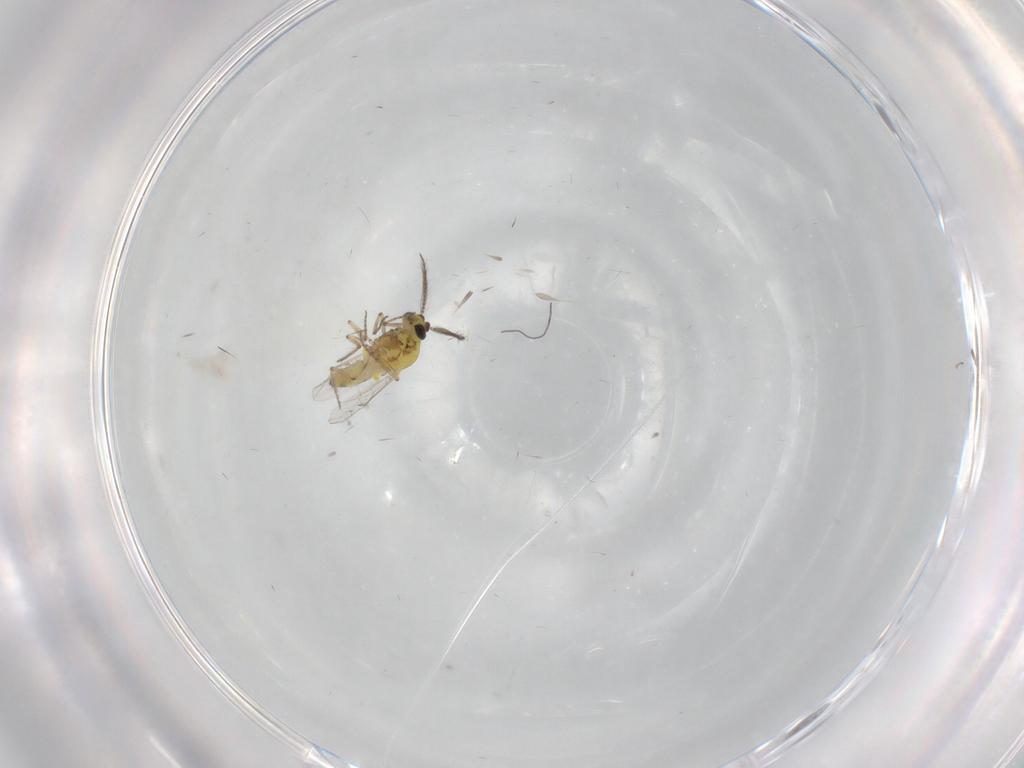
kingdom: Animalia
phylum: Arthropoda
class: Insecta
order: Diptera
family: Ceratopogonidae
